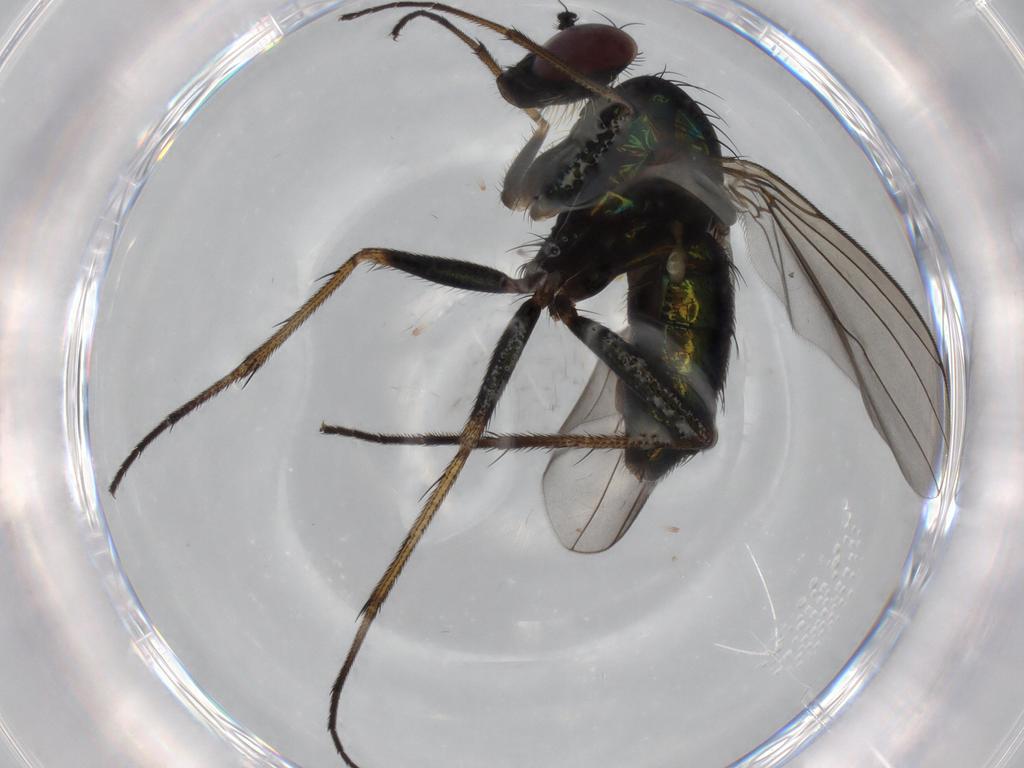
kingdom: Animalia
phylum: Arthropoda
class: Insecta
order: Diptera
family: Dolichopodidae
